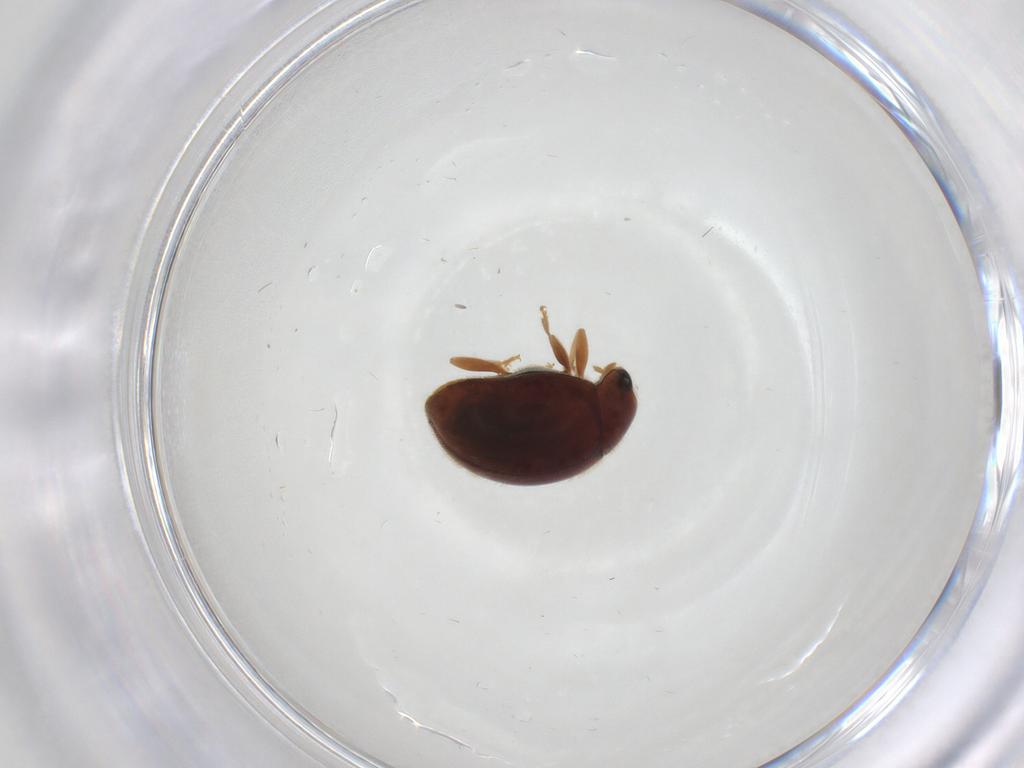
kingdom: Animalia
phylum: Arthropoda
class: Insecta
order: Coleoptera
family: Coccinellidae
